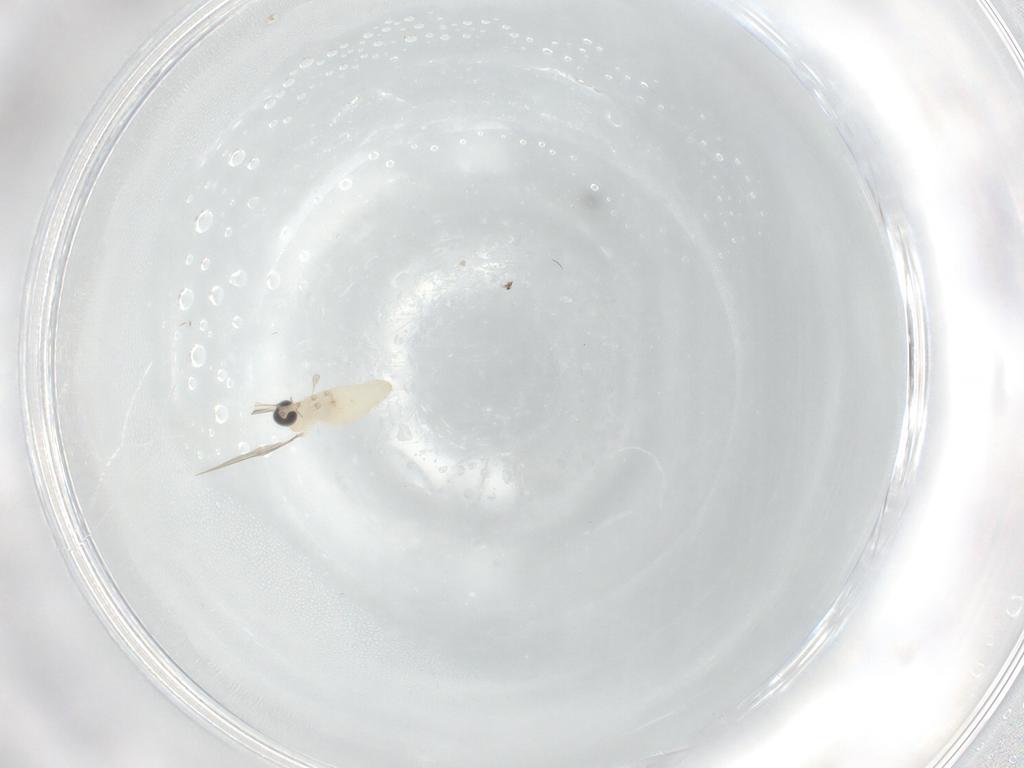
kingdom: Animalia
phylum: Arthropoda
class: Insecta
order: Diptera
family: Cecidomyiidae
